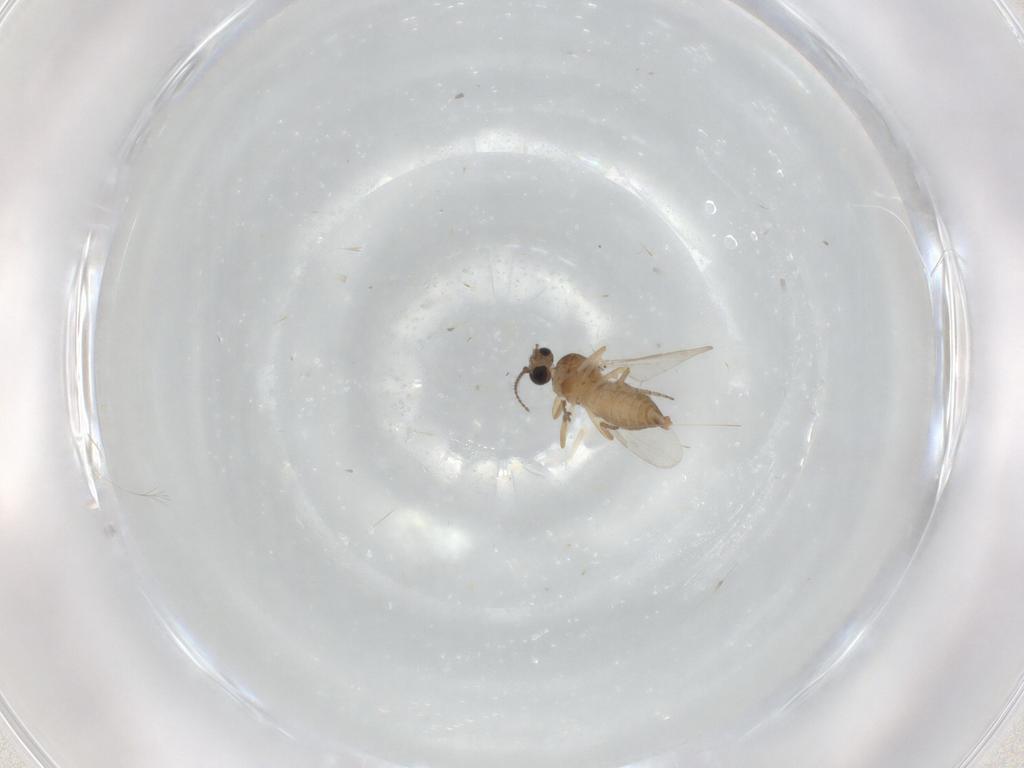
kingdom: Animalia
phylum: Arthropoda
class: Insecta
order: Diptera
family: Ceratopogonidae
